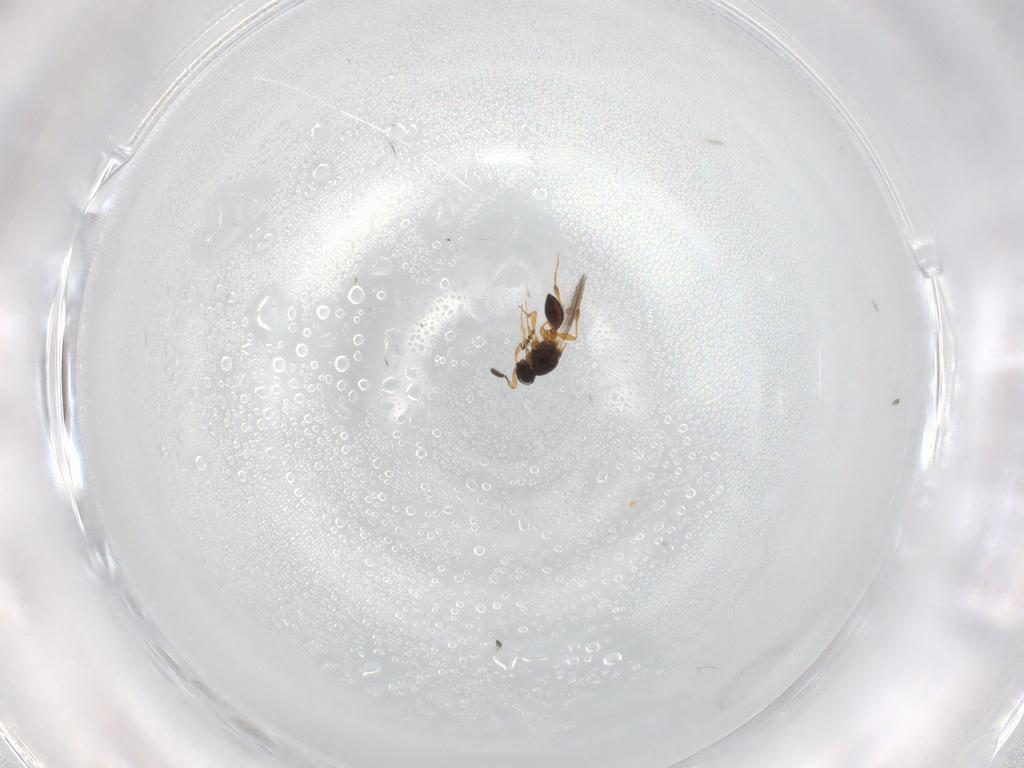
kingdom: Animalia
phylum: Arthropoda
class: Insecta
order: Hymenoptera
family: Platygastridae
